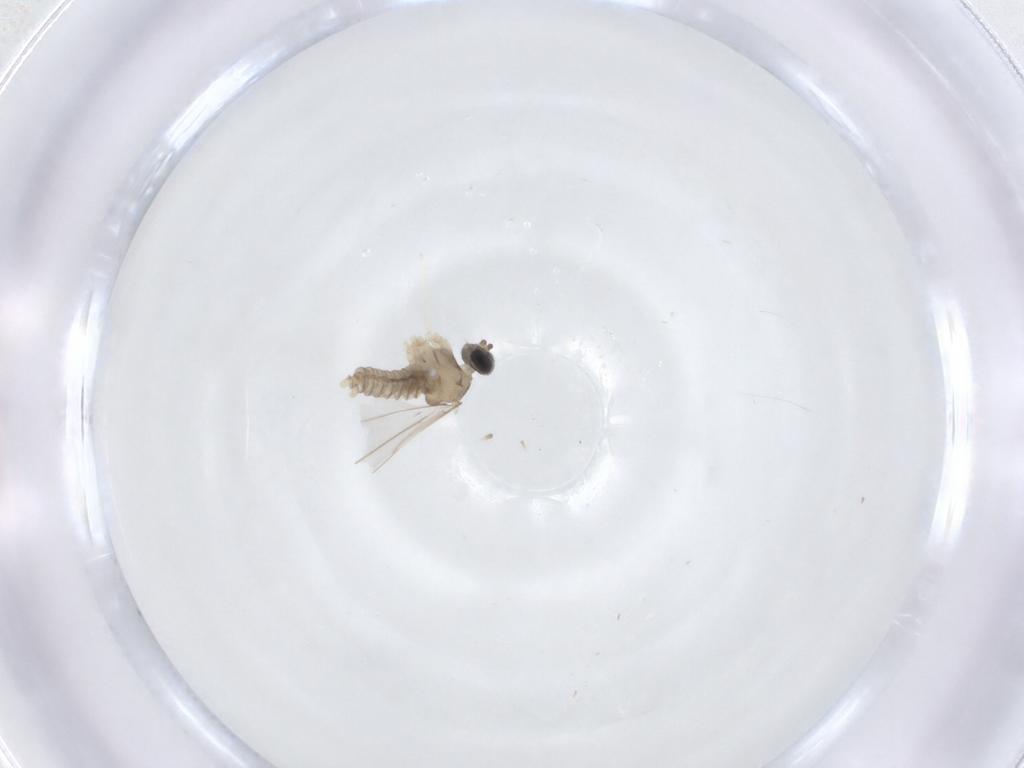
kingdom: Animalia
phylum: Arthropoda
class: Insecta
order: Diptera
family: Cecidomyiidae
